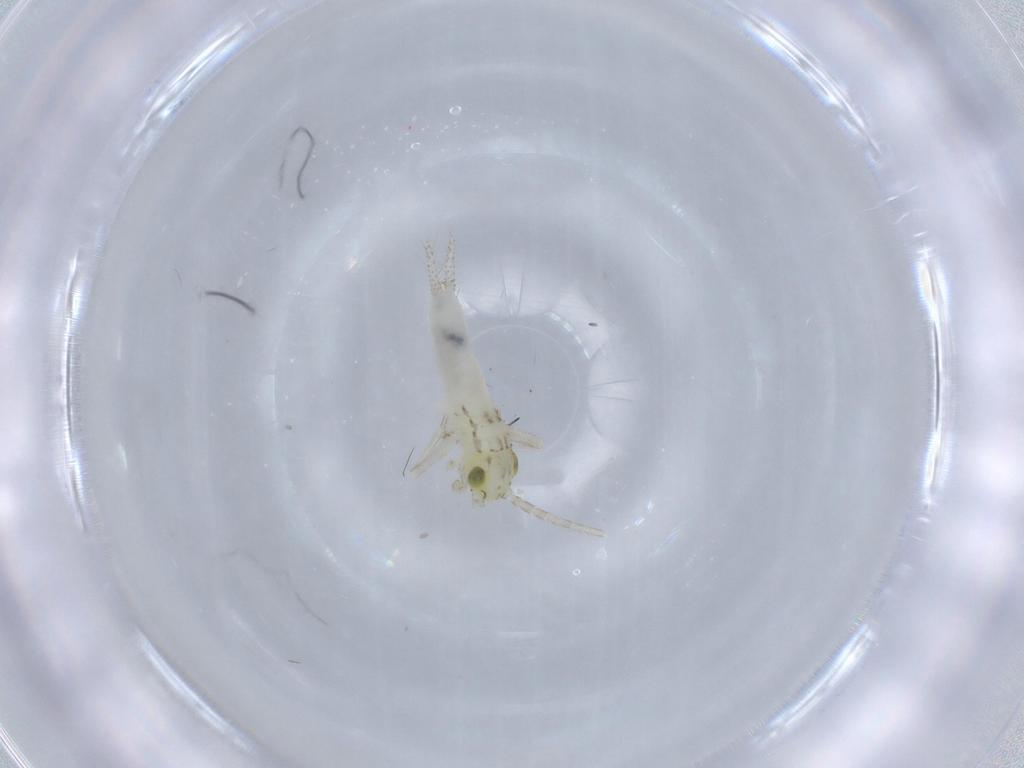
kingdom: Animalia
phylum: Arthropoda
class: Insecta
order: Orthoptera
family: Trigonidiidae
